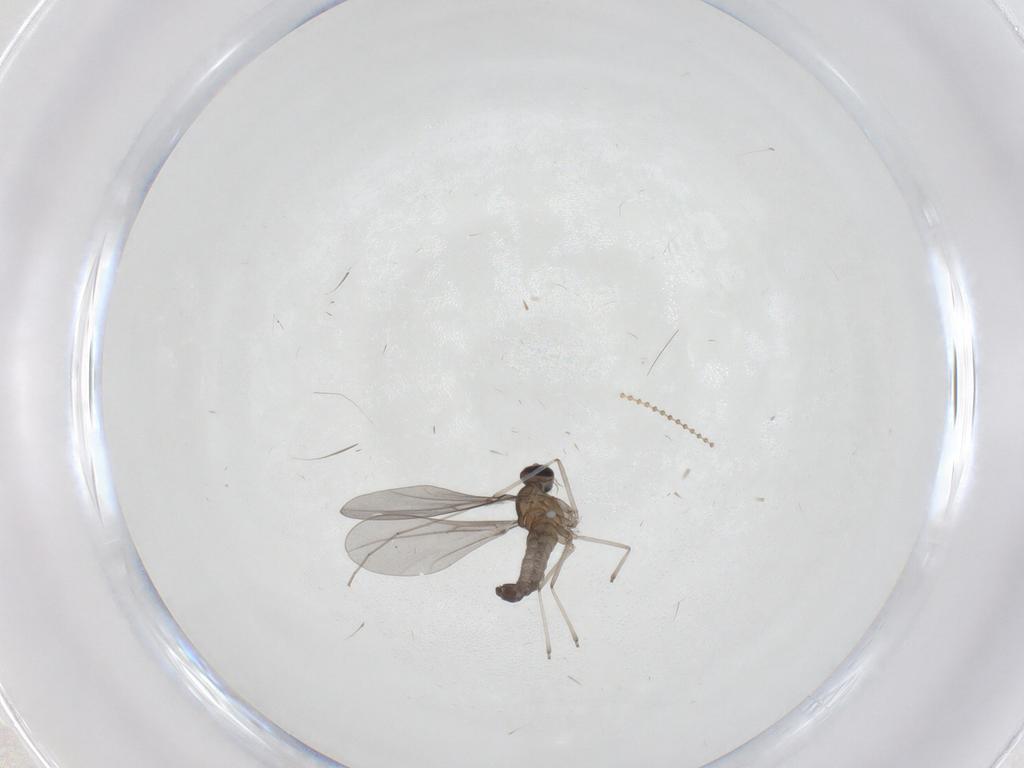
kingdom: Animalia
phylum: Arthropoda
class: Insecta
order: Diptera
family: Cecidomyiidae
